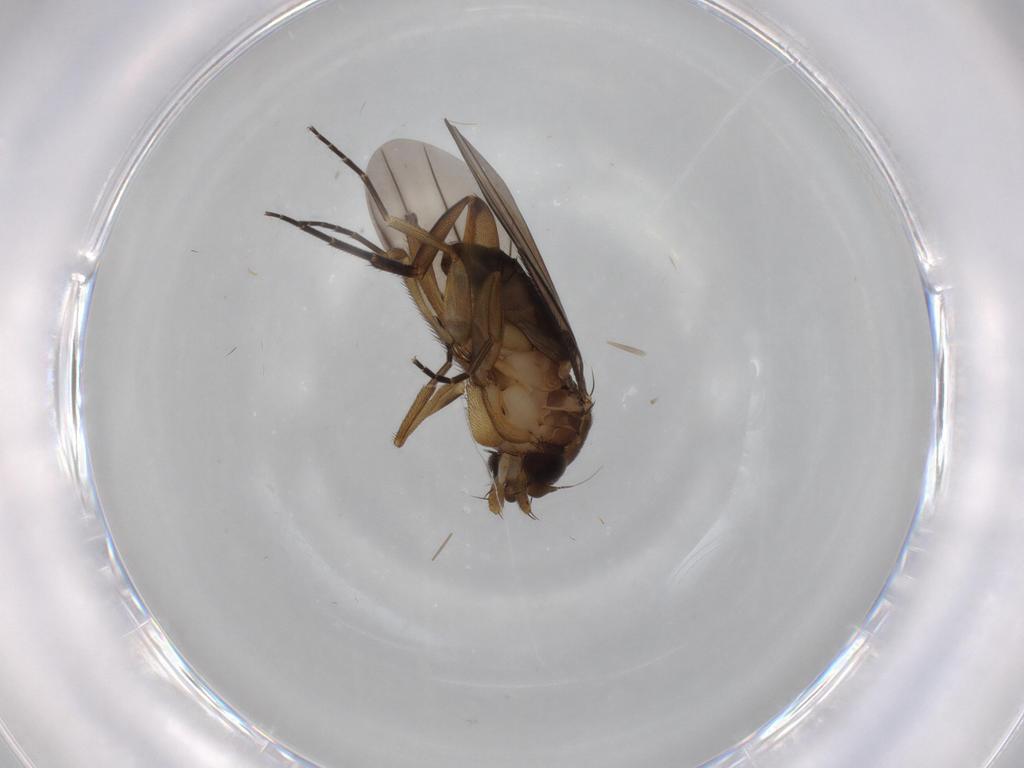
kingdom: Animalia
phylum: Arthropoda
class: Insecta
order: Diptera
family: Phoridae
